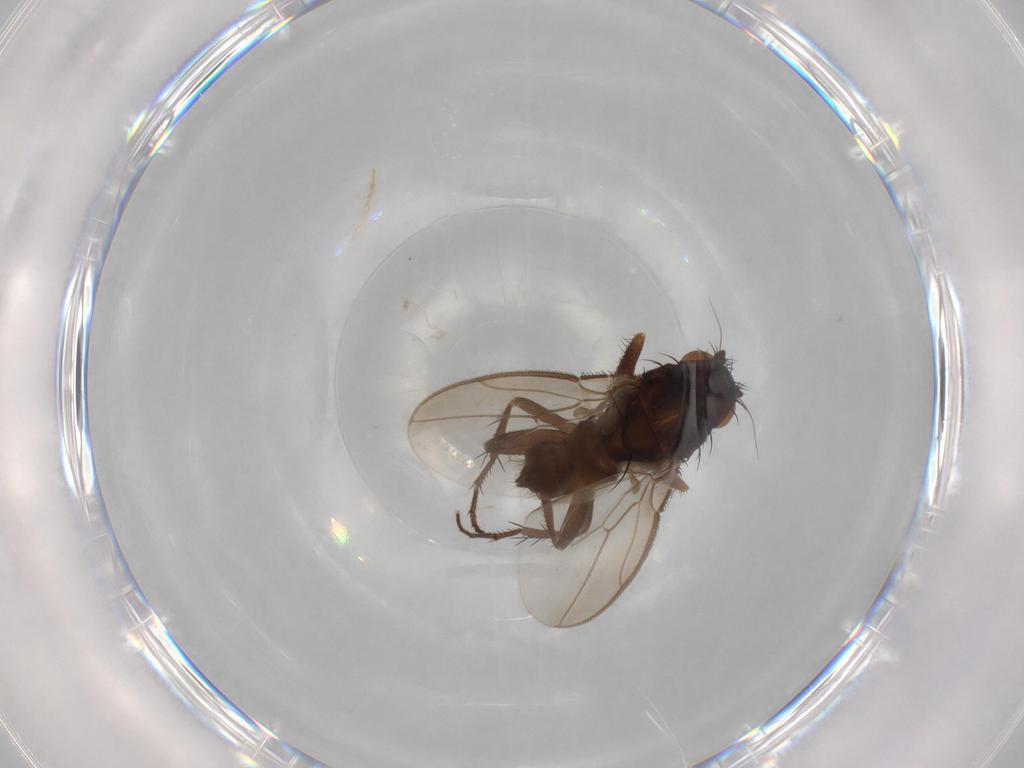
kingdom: Animalia
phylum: Arthropoda
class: Insecta
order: Diptera
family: Sphaeroceridae
